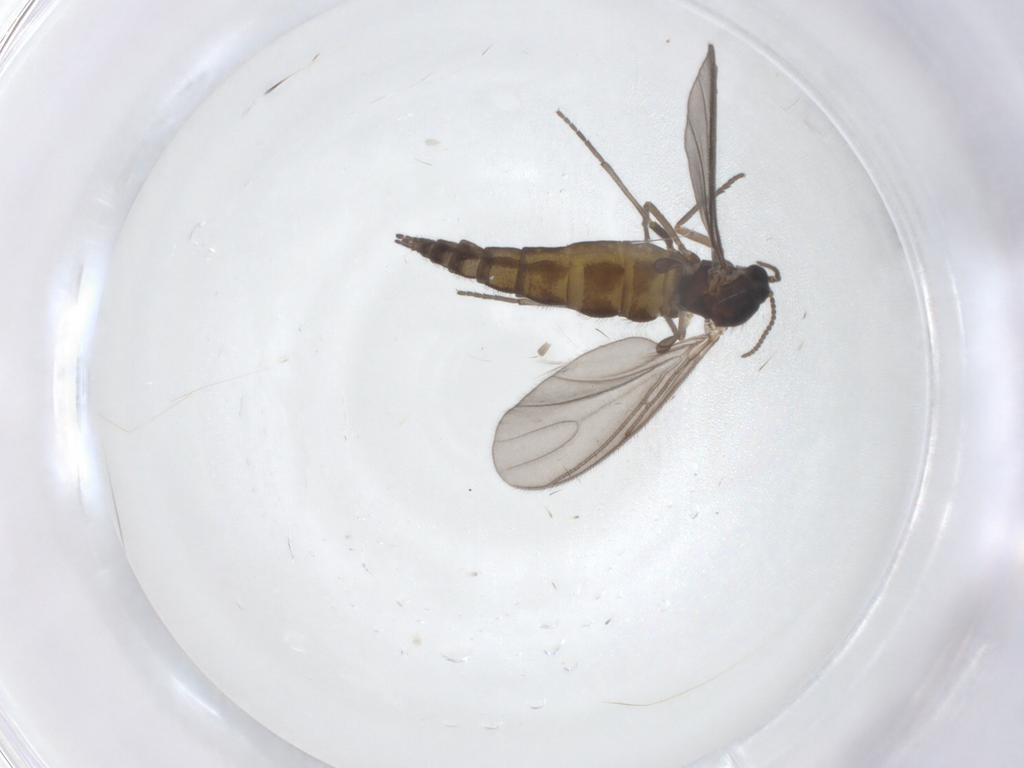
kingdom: Animalia
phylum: Arthropoda
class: Insecta
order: Diptera
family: Sciaridae
